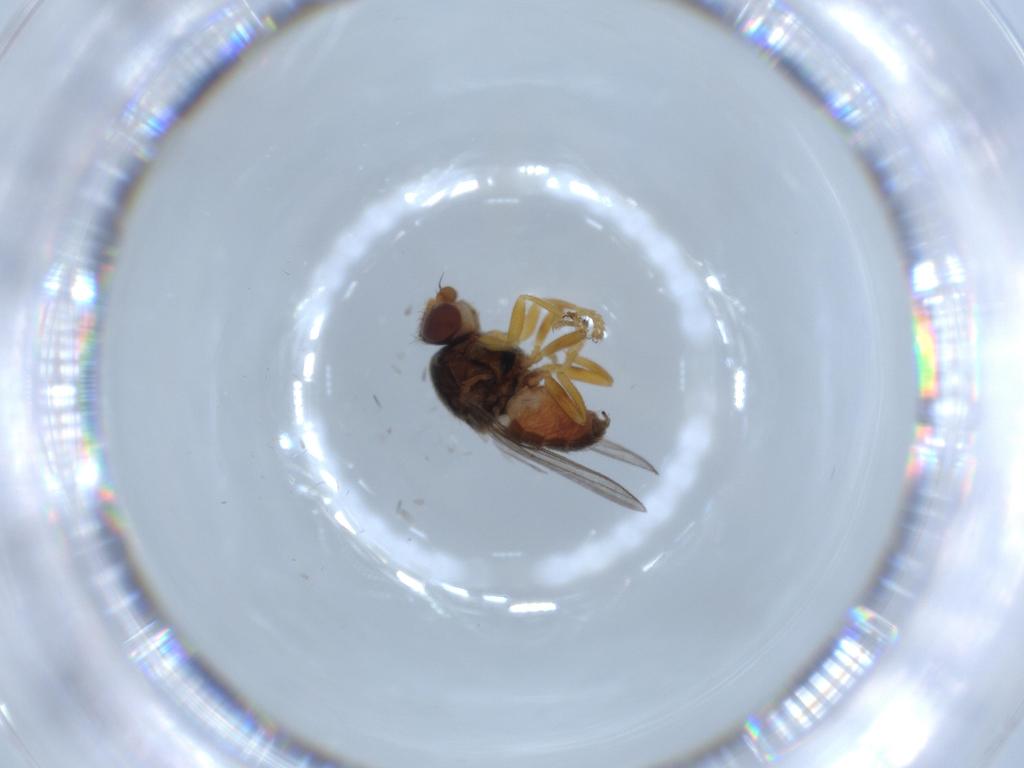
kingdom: Animalia
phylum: Arthropoda
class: Insecta
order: Diptera
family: Chloropidae
